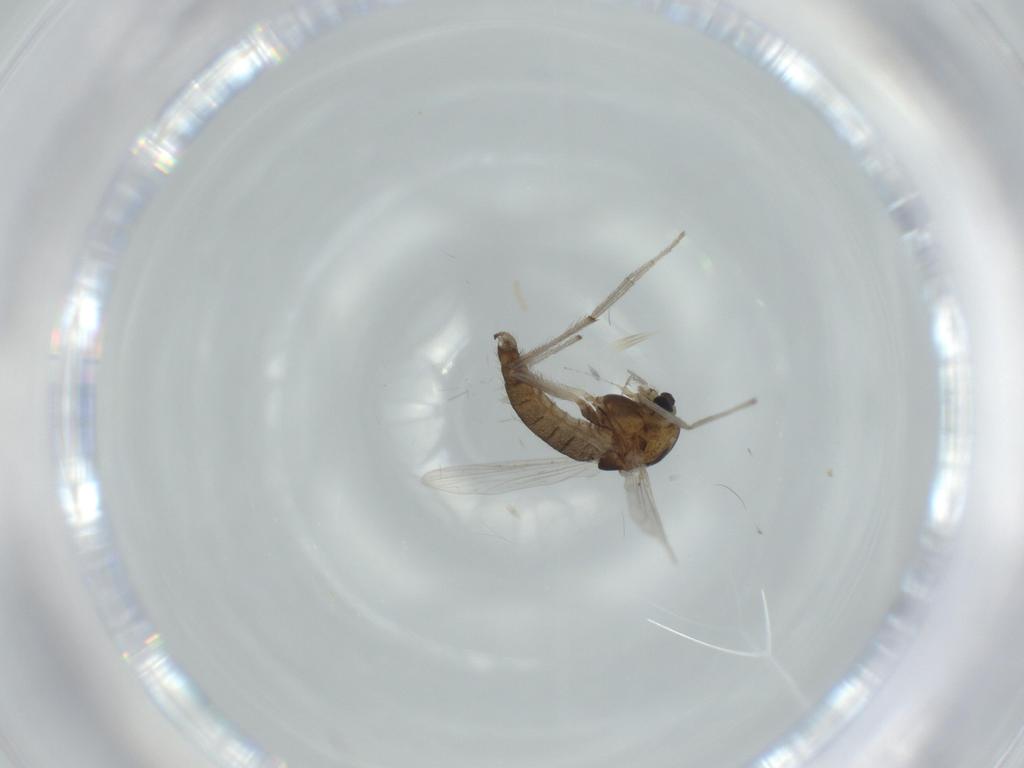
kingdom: Animalia
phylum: Arthropoda
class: Insecta
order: Diptera
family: Chironomidae
